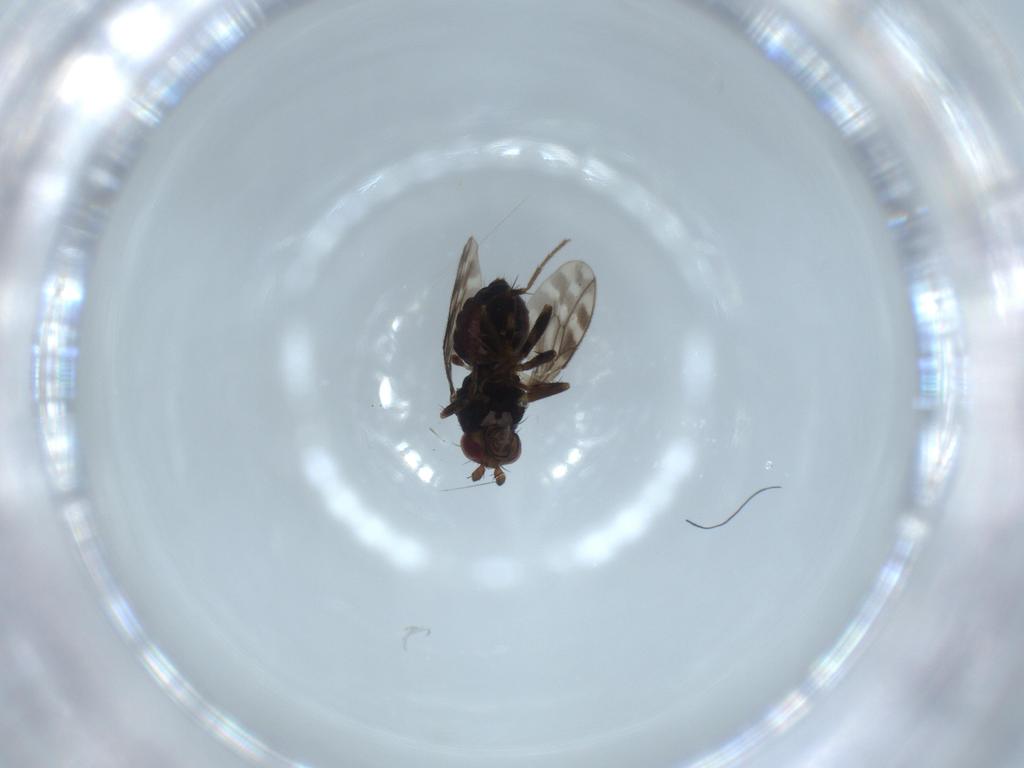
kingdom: Animalia
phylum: Arthropoda
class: Insecta
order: Diptera
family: Sphaeroceridae
